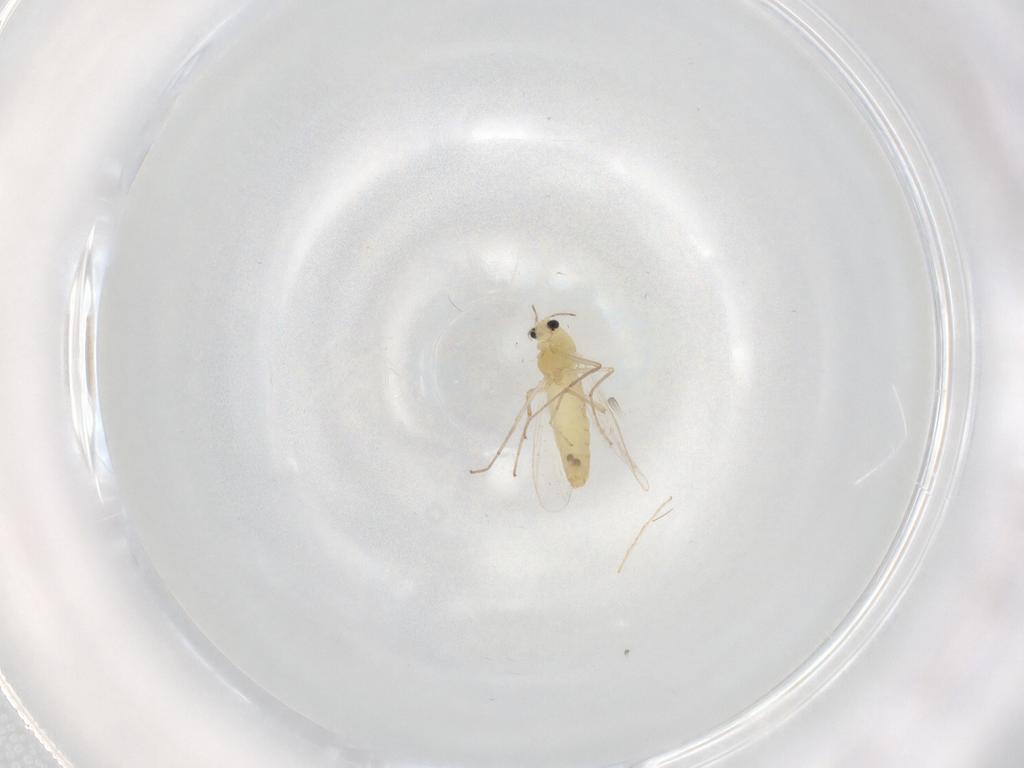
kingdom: Animalia
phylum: Arthropoda
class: Insecta
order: Diptera
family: Chironomidae
